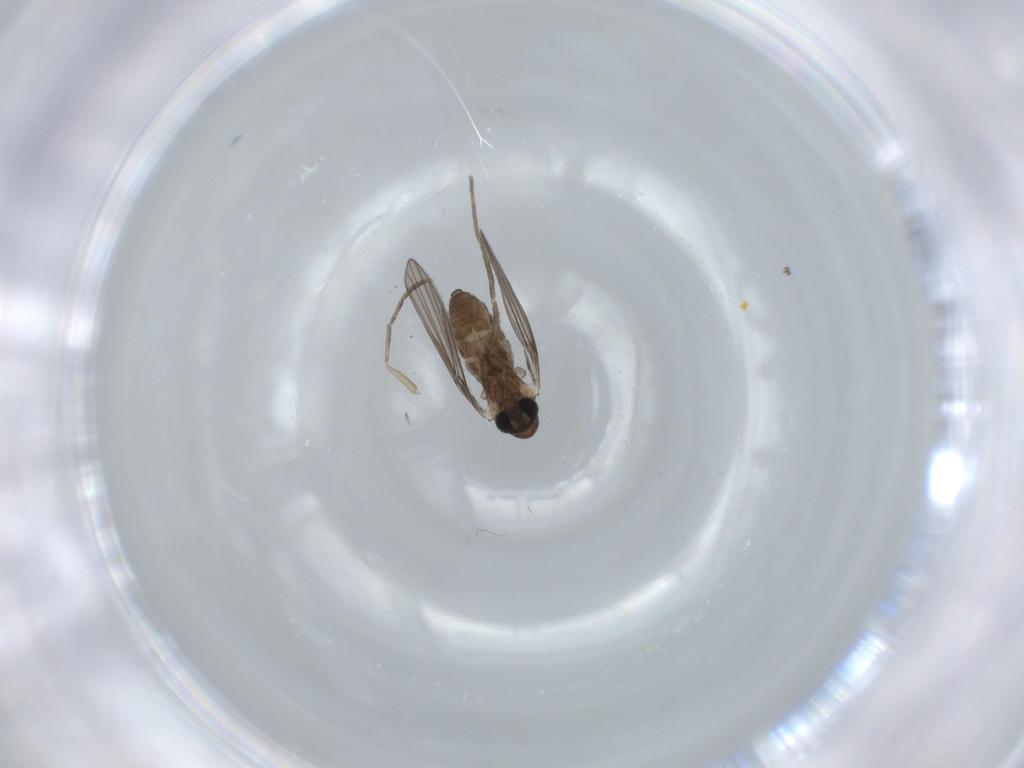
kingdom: Animalia
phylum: Arthropoda
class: Insecta
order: Diptera
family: Psychodidae
